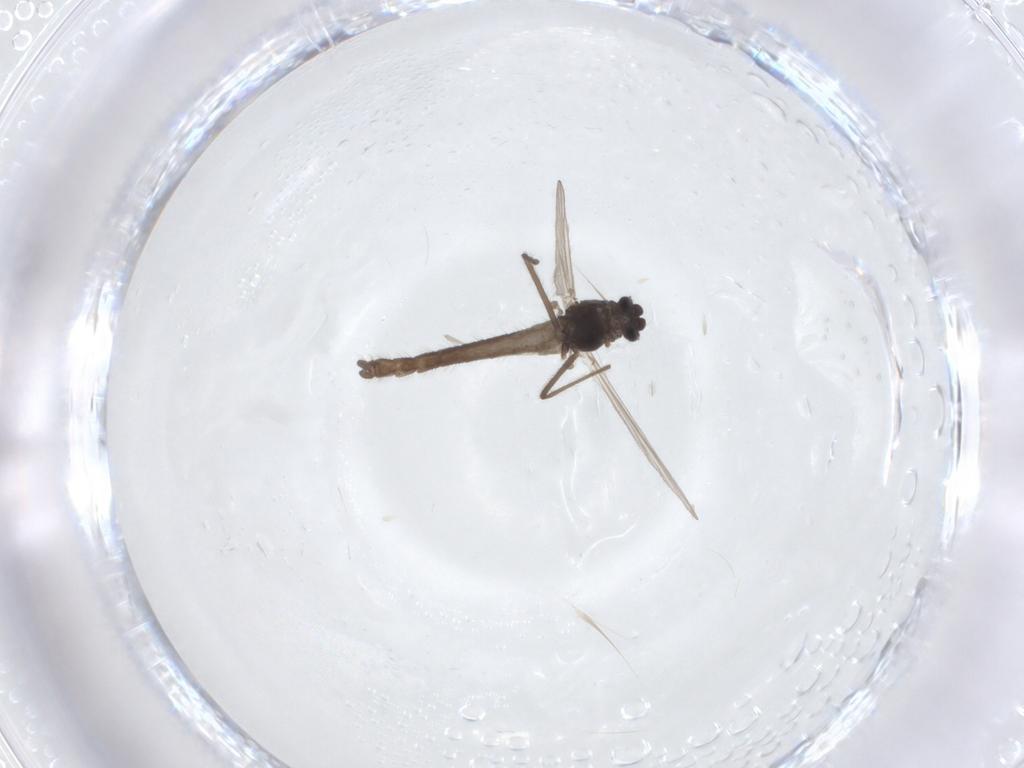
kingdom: Animalia
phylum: Arthropoda
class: Insecta
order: Diptera
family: Chironomidae
